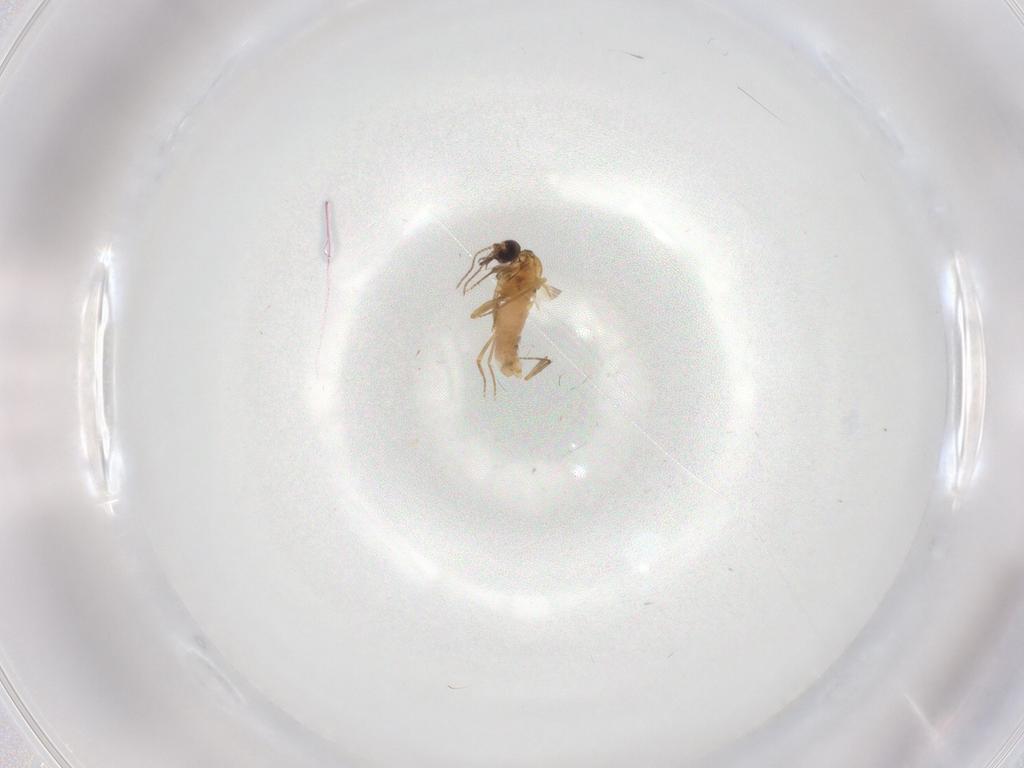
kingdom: Animalia
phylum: Arthropoda
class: Insecta
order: Diptera
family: Ceratopogonidae
